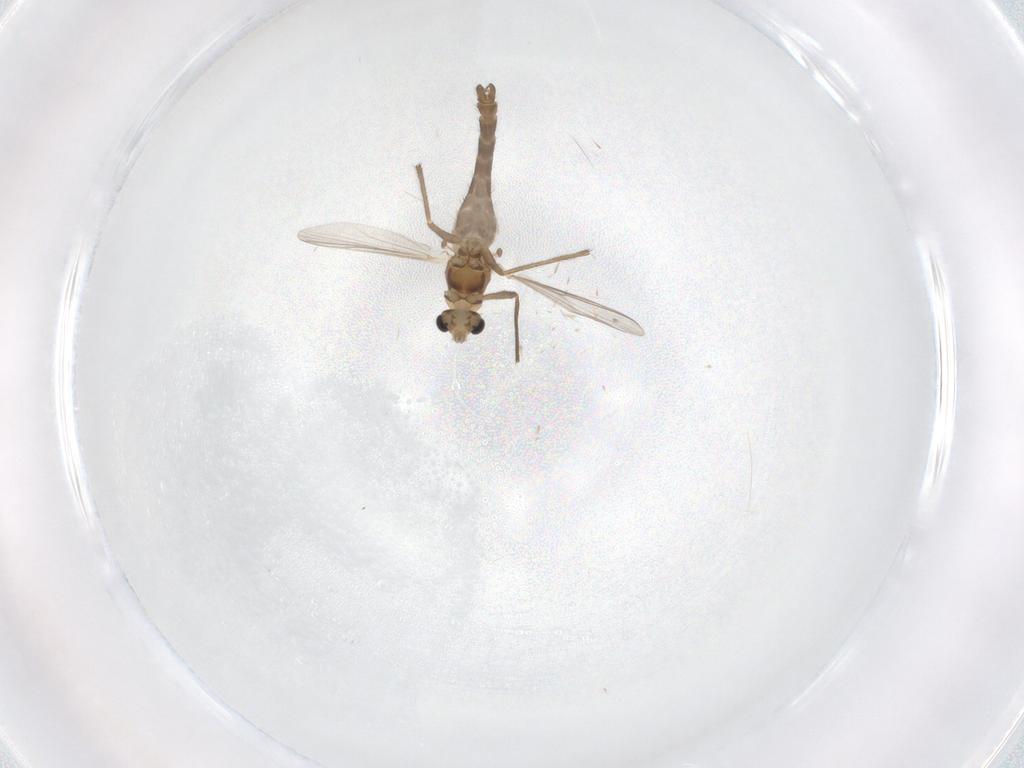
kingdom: Animalia
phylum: Arthropoda
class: Insecta
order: Diptera
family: Chironomidae
